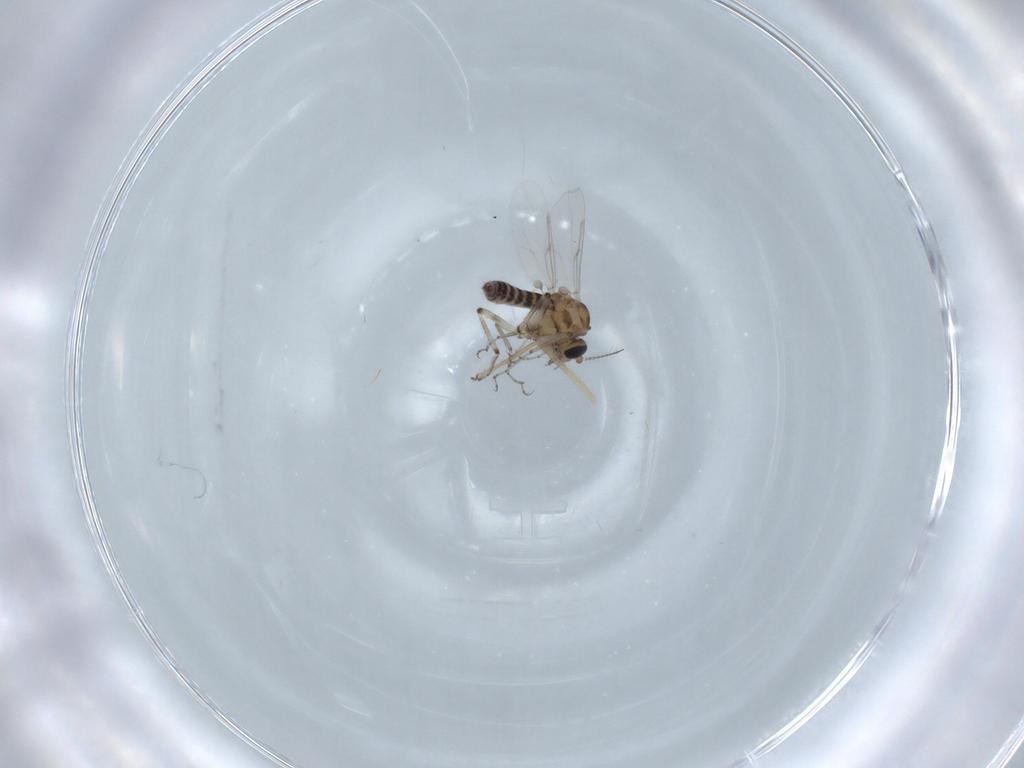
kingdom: Animalia
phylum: Arthropoda
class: Insecta
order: Diptera
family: Ceratopogonidae
